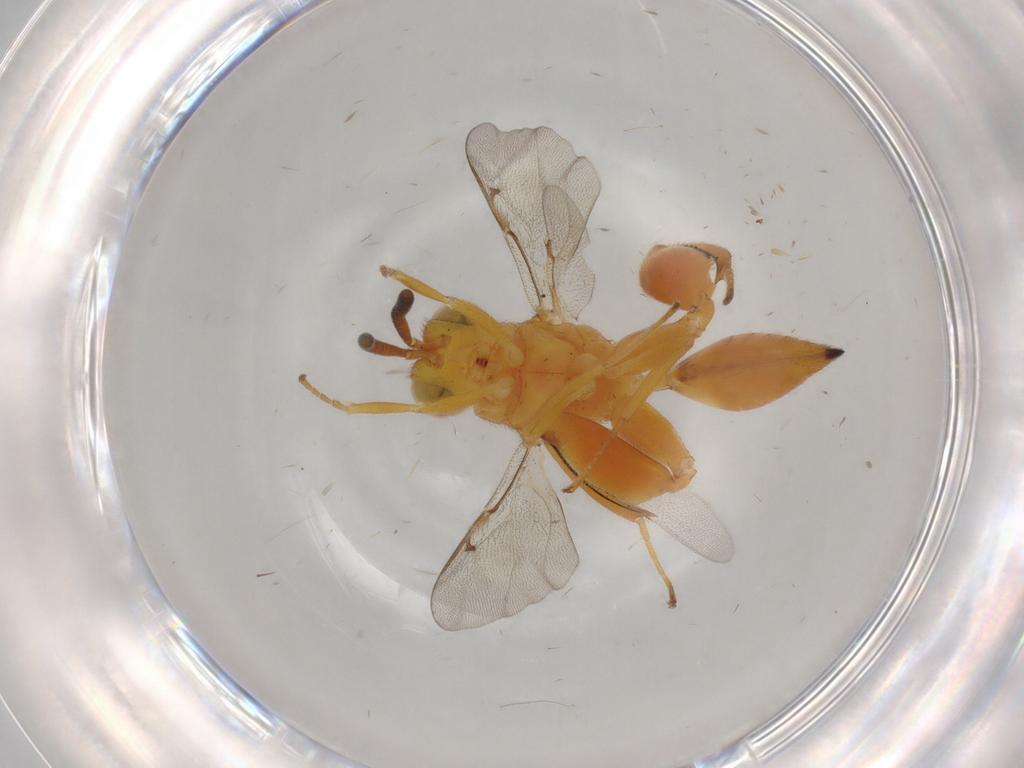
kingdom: Animalia
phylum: Arthropoda
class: Insecta
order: Hymenoptera
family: Chalcididae
